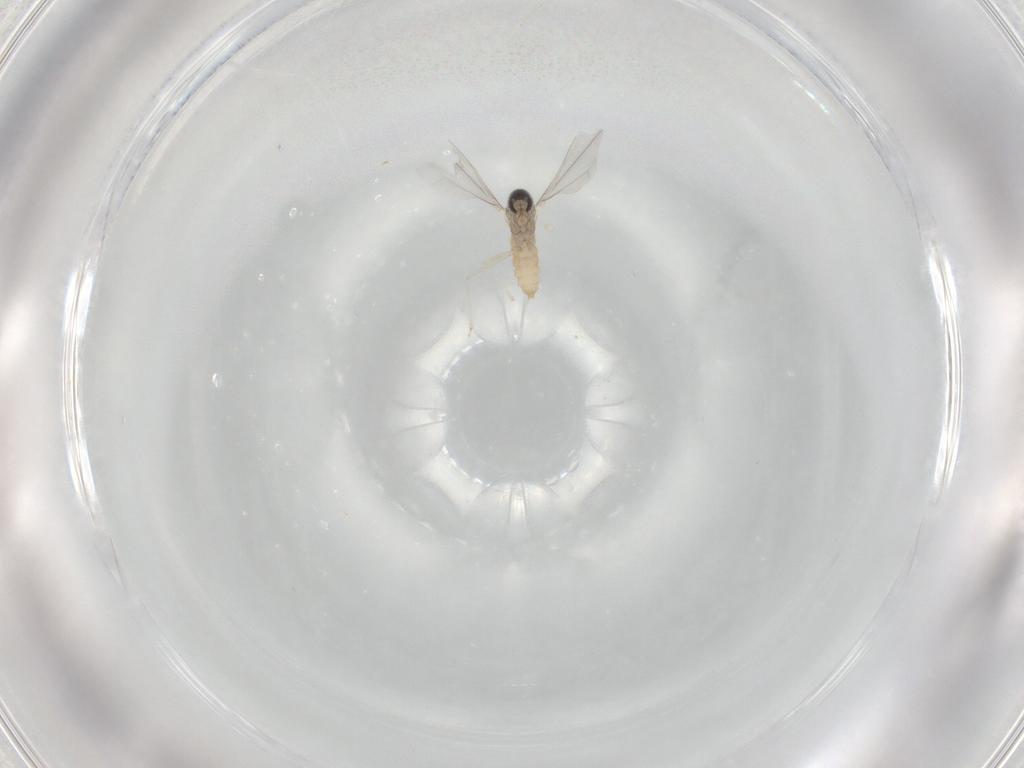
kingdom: Animalia
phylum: Arthropoda
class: Insecta
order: Diptera
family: Cecidomyiidae
